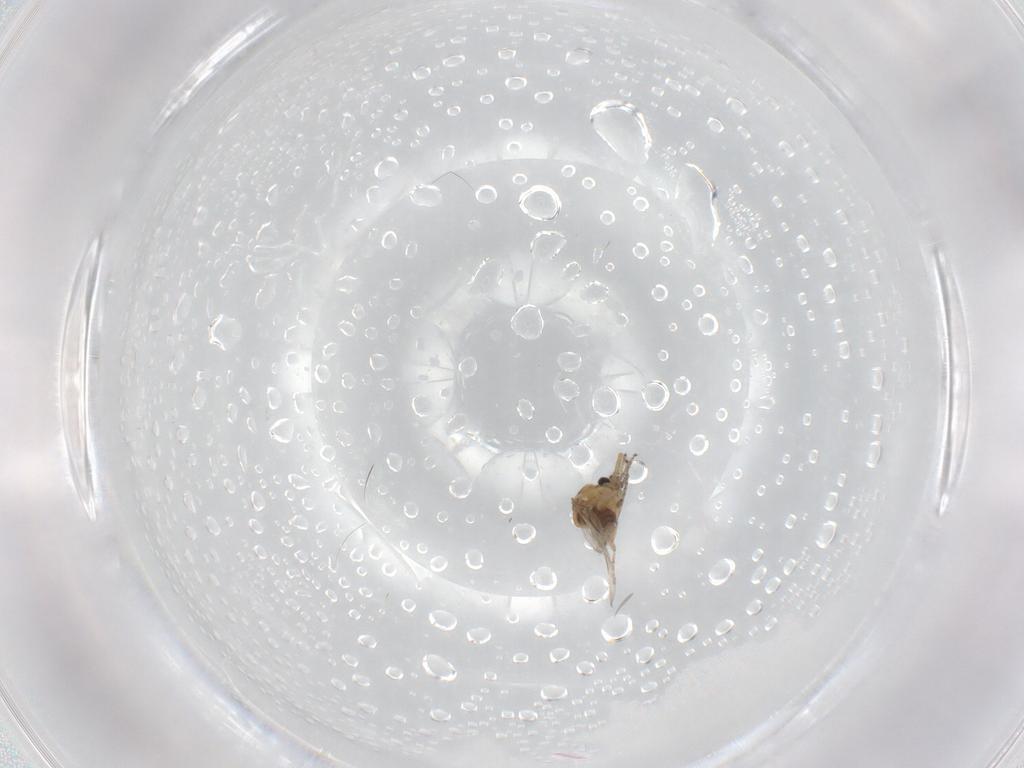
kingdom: Animalia
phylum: Arthropoda
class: Insecta
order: Diptera
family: Ceratopogonidae
